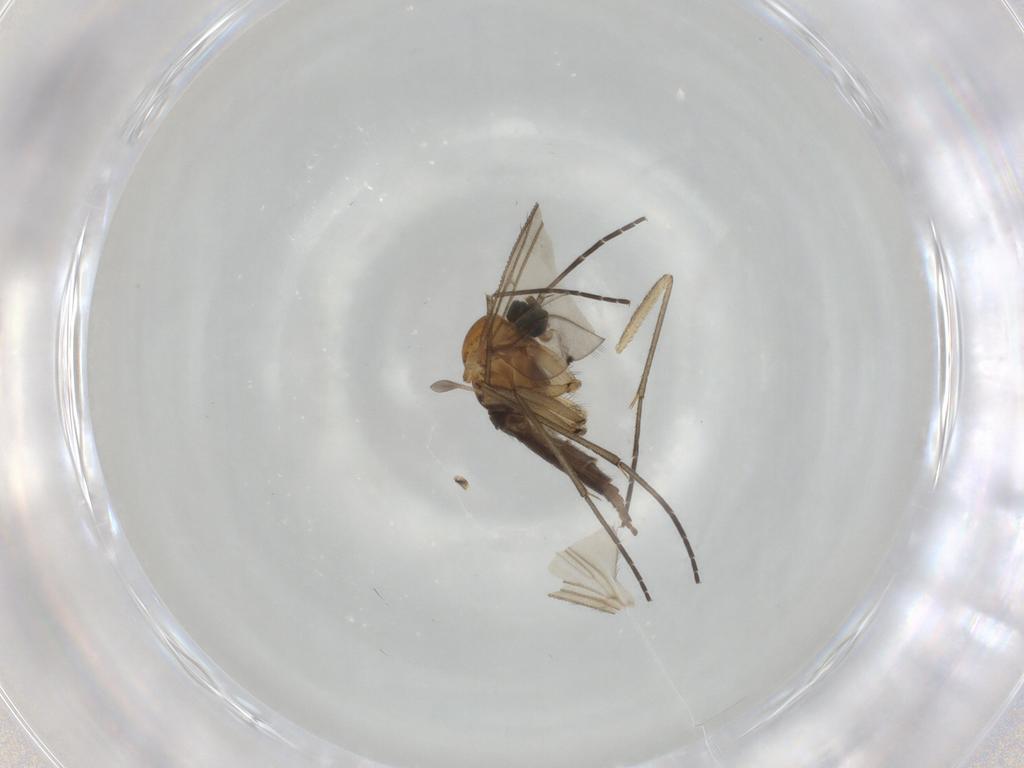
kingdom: Animalia
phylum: Arthropoda
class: Insecta
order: Diptera
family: Sciaridae
